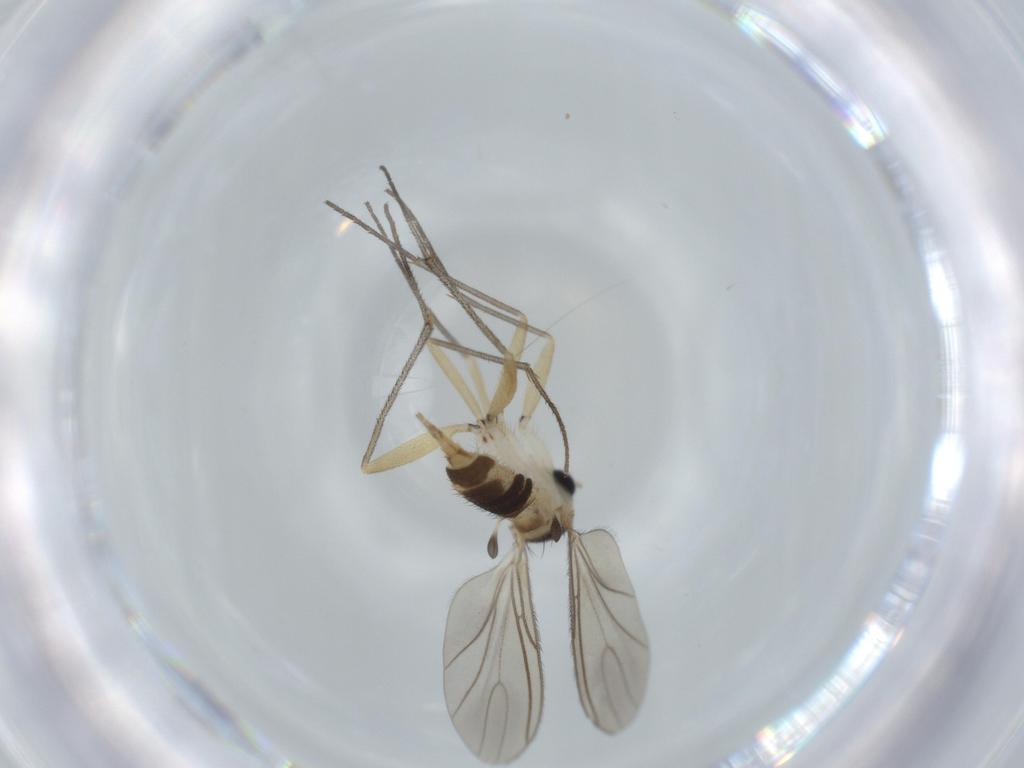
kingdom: Animalia
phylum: Arthropoda
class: Insecta
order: Diptera
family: Sciaridae
